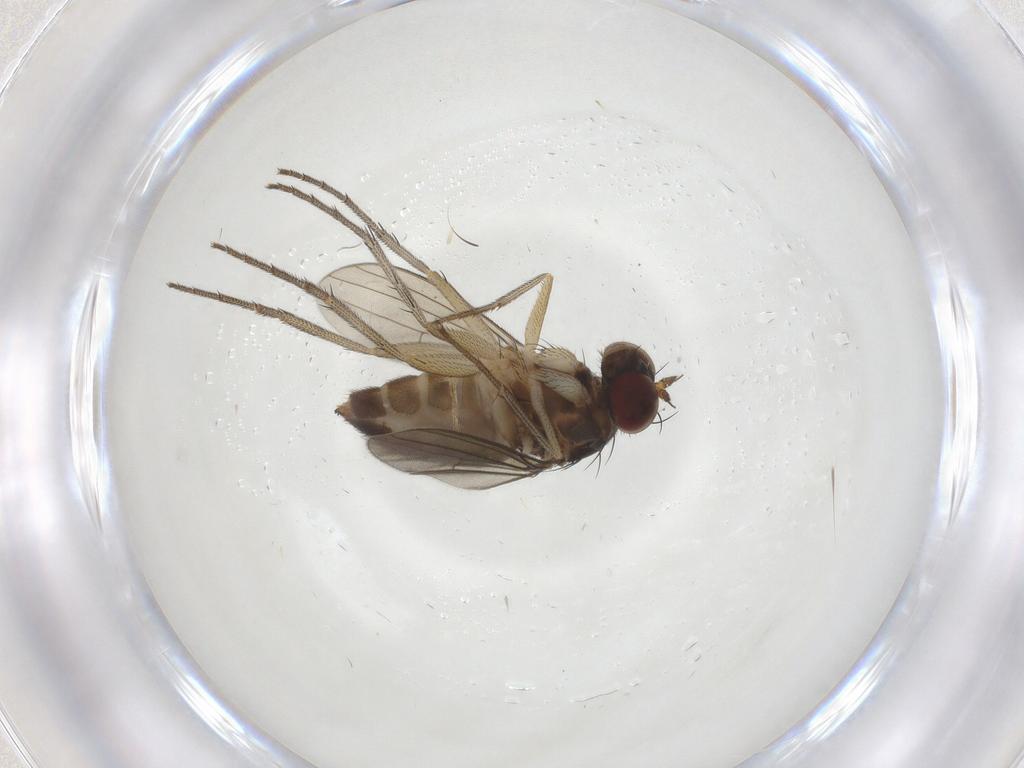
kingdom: Animalia
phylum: Arthropoda
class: Insecta
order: Diptera
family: Dolichopodidae
